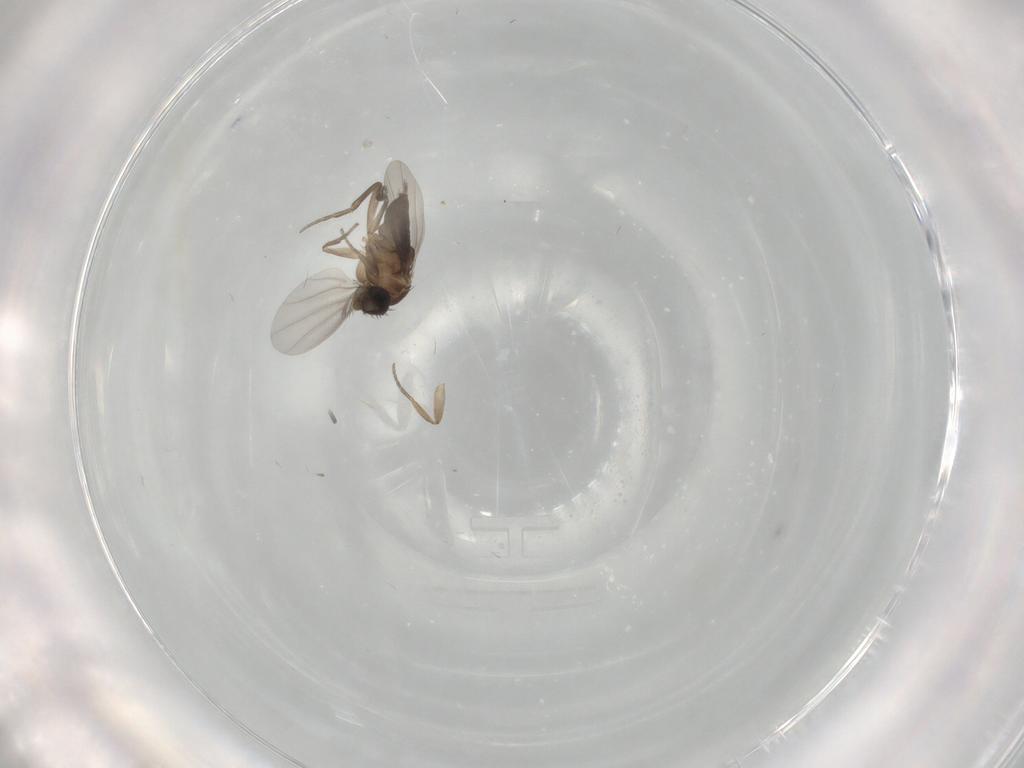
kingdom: Animalia
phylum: Arthropoda
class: Insecta
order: Diptera
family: Phoridae
